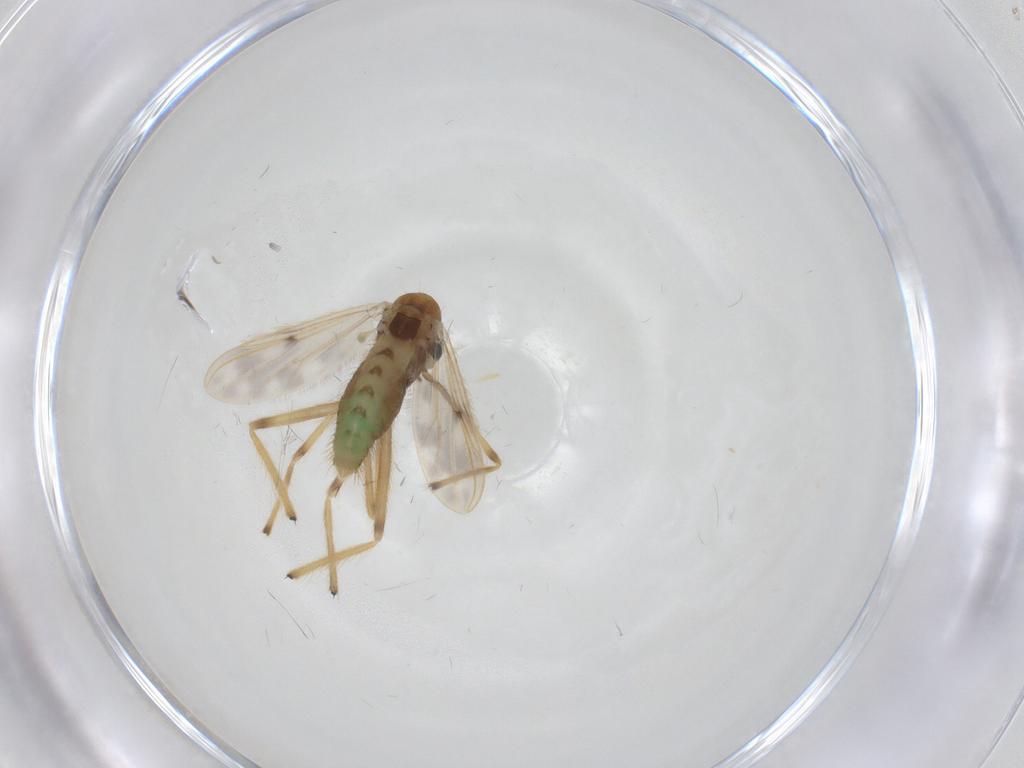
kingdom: Animalia
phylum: Arthropoda
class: Insecta
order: Diptera
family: Chironomidae
